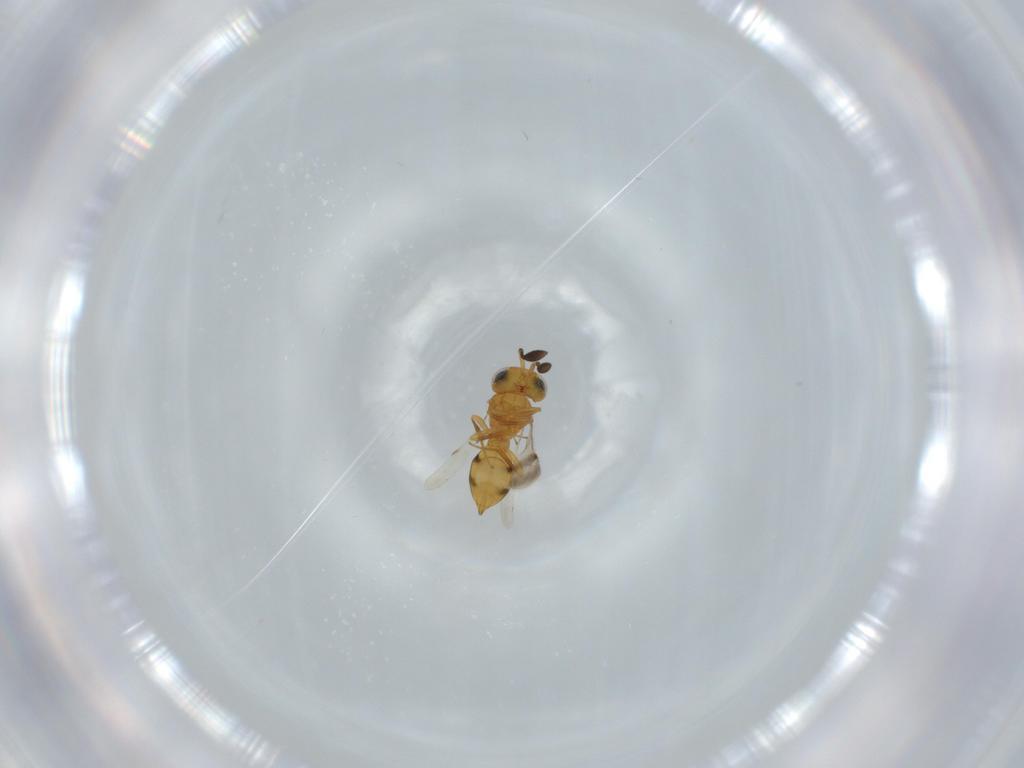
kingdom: Animalia
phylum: Arthropoda
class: Insecta
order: Hymenoptera
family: Scelionidae
